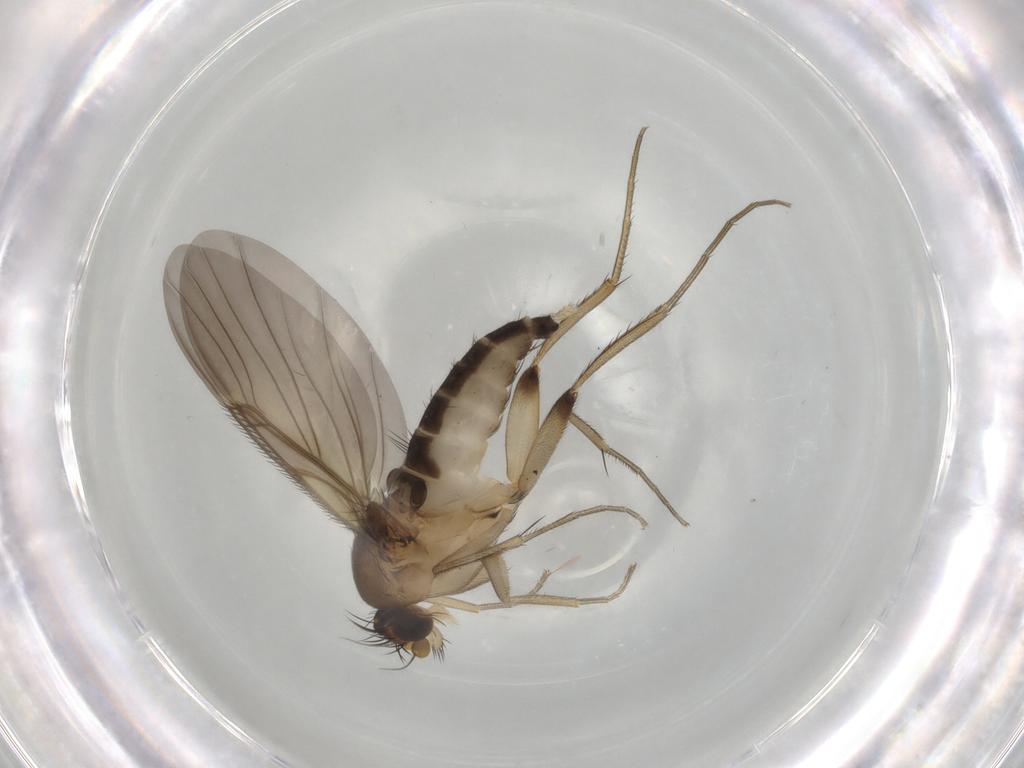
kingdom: Animalia
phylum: Arthropoda
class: Insecta
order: Diptera
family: Phoridae
